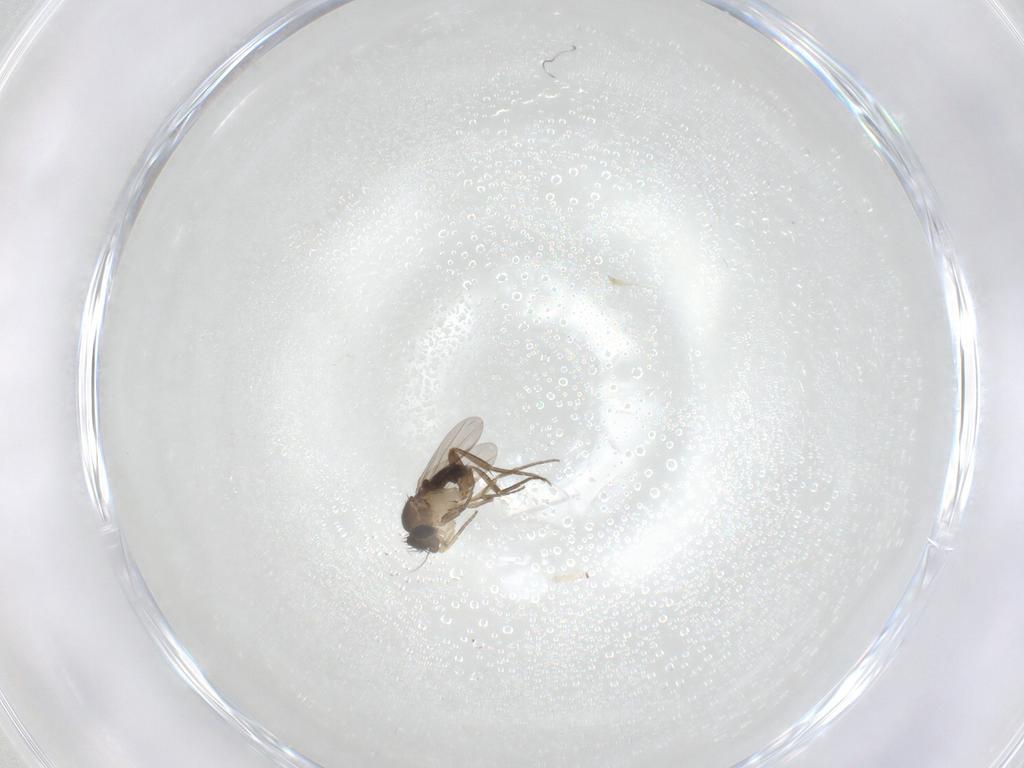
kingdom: Animalia
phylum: Arthropoda
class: Insecta
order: Diptera
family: Phoridae
